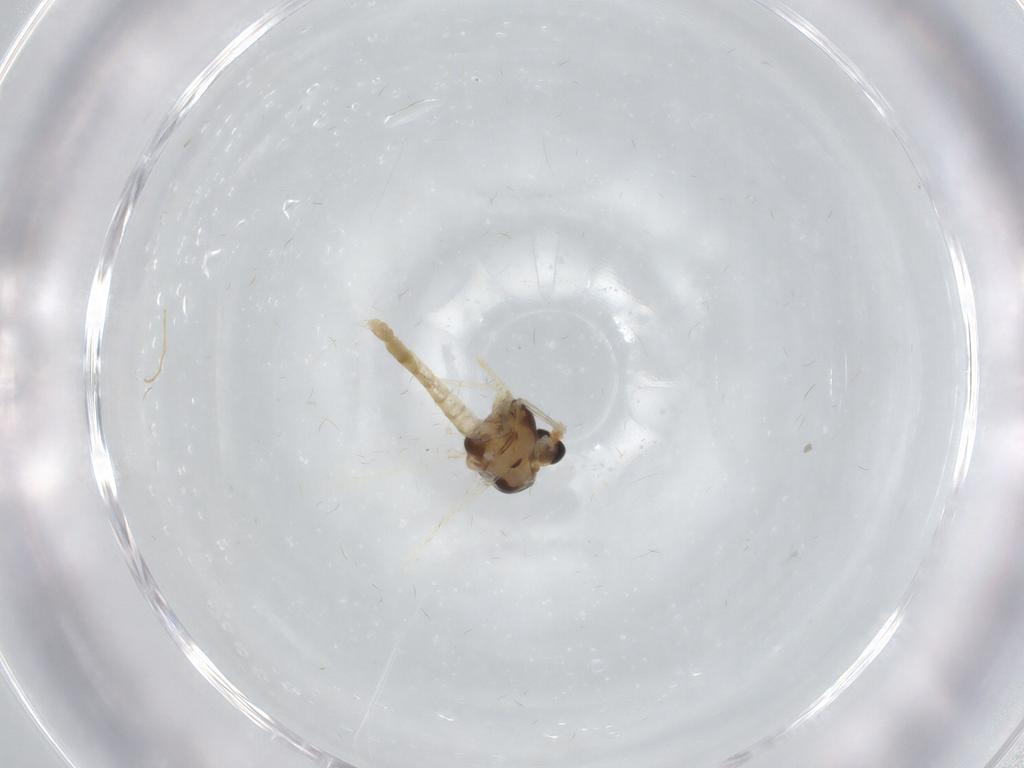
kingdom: Animalia
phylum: Arthropoda
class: Insecta
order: Diptera
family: Chironomidae
